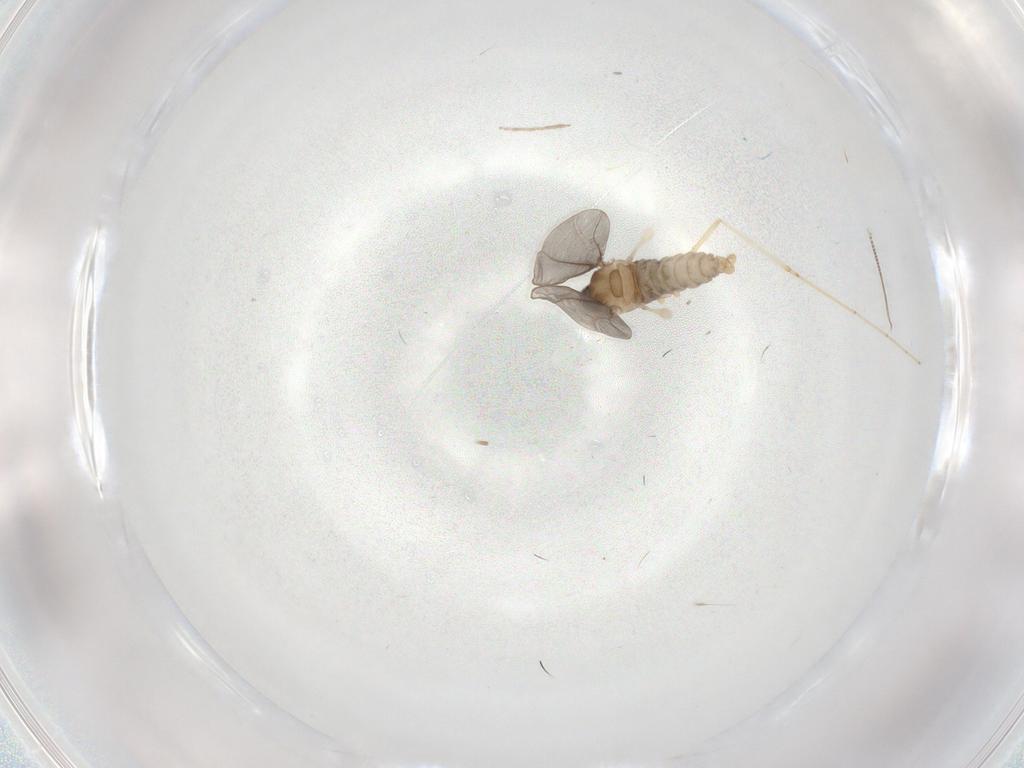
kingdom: Animalia
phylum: Arthropoda
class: Insecta
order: Diptera
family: Cecidomyiidae
